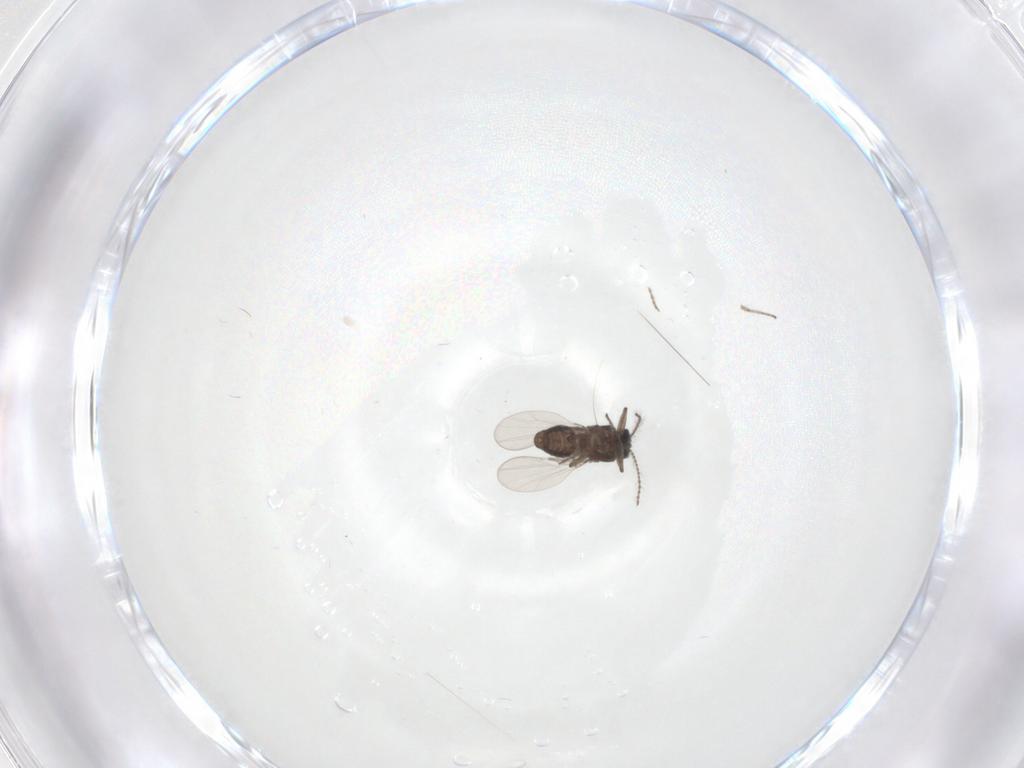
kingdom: Animalia
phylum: Arthropoda
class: Insecta
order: Diptera
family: Ceratopogonidae
